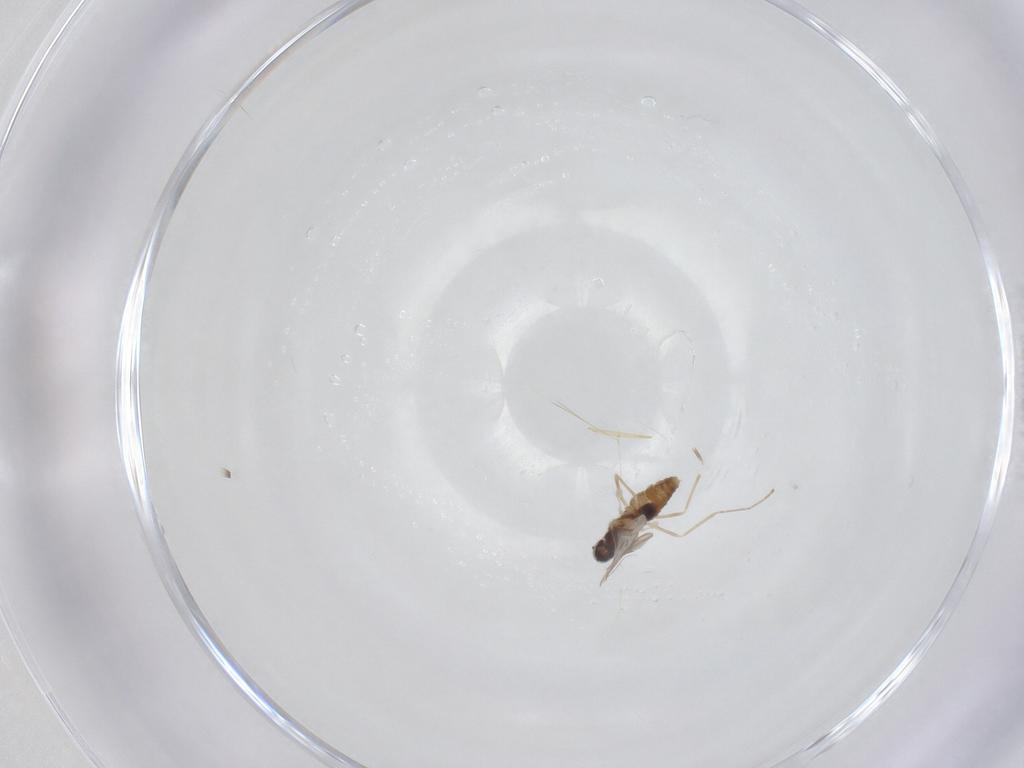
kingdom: Animalia
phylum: Arthropoda
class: Insecta
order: Diptera
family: Cecidomyiidae
